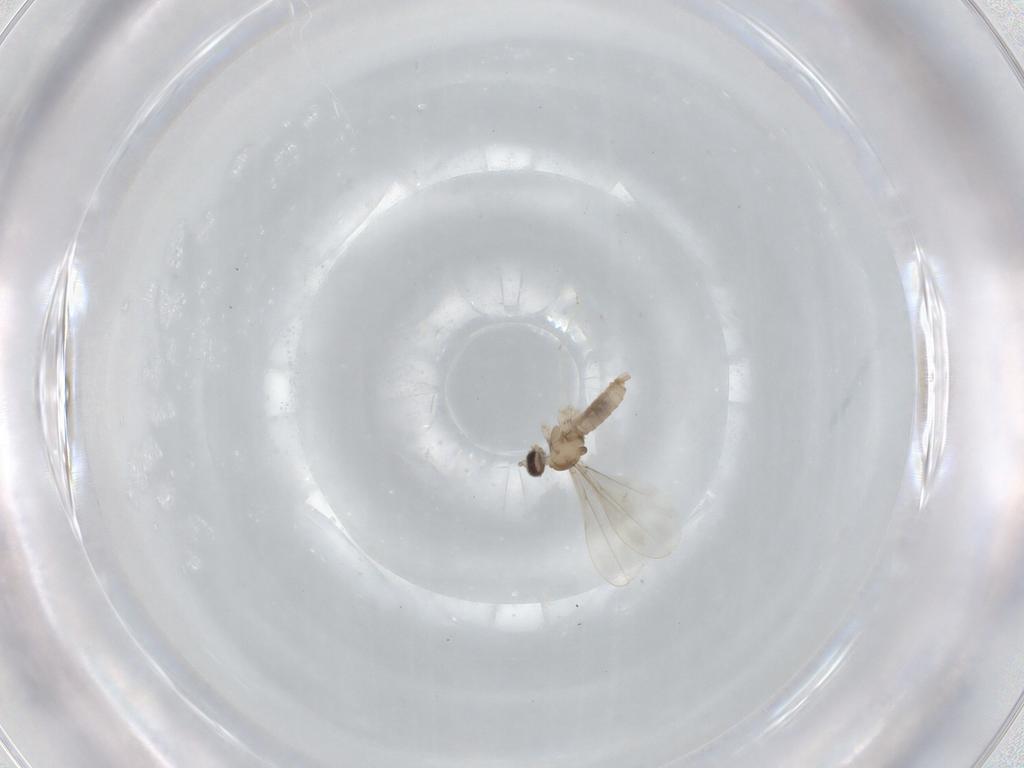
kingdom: Animalia
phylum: Arthropoda
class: Insecta
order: Diptera
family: Cecidomyiidae
